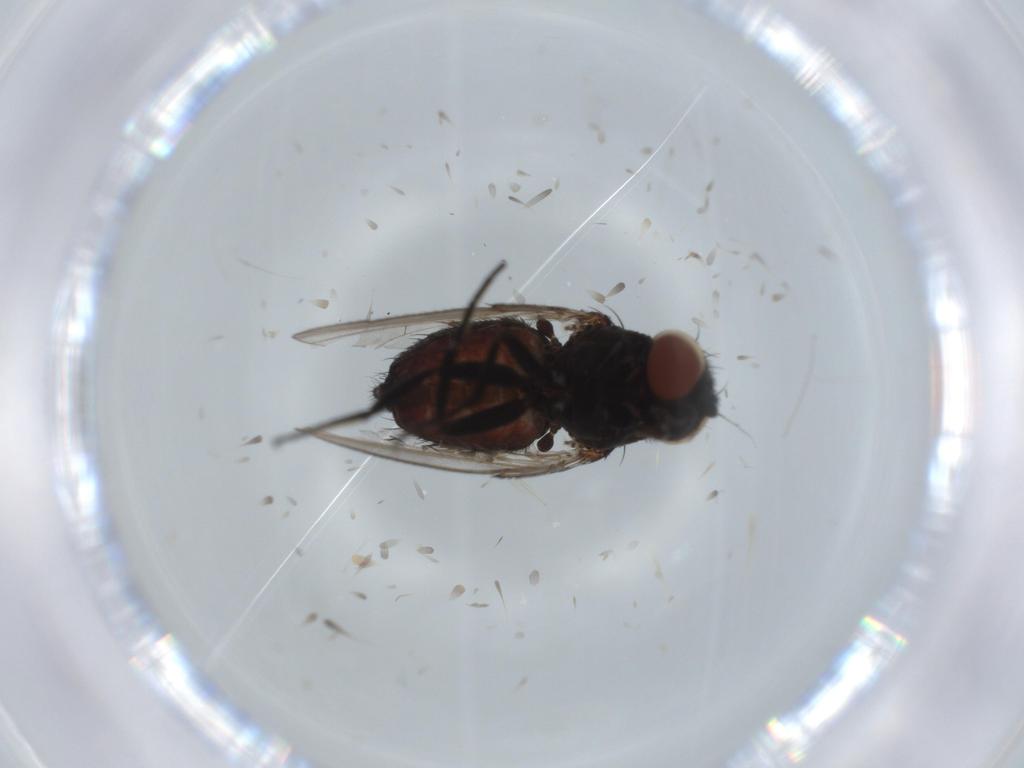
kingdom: Animalia
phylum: Arthropoda
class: Insecta
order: Diptera
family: Milichiidae
